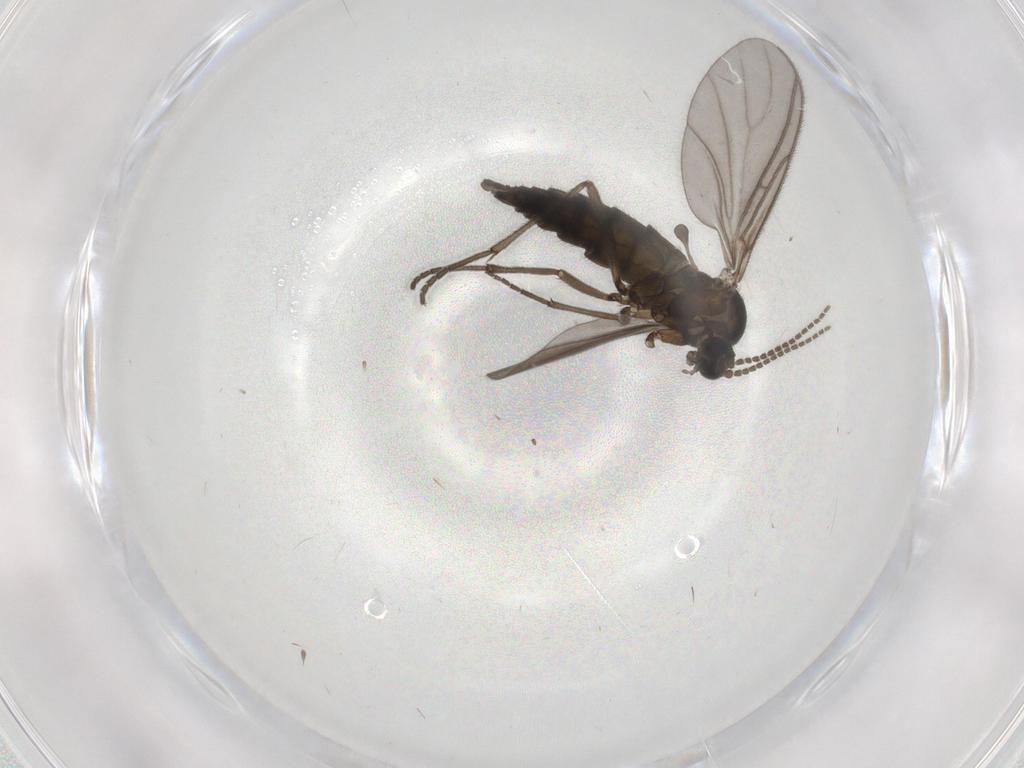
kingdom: Animalia
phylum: Arthropoda
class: Insecta
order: Diptera
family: Sciaridae
